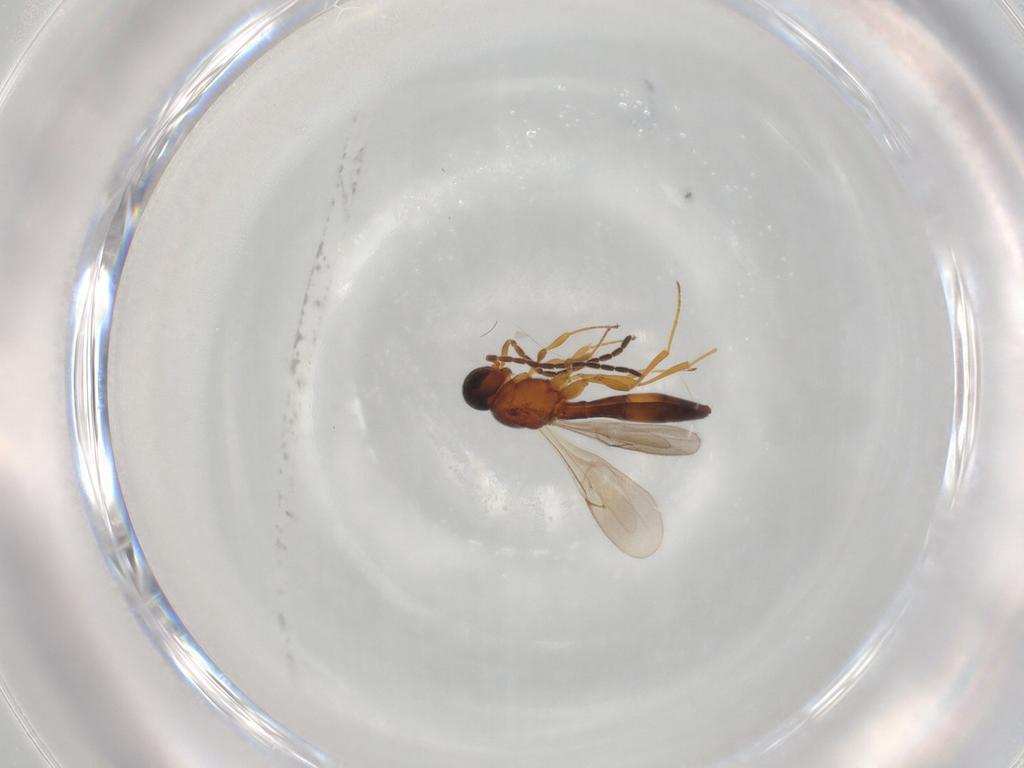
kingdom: Animalia
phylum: Arthropoda
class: Insecta
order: Hymenoptera
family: Scelionidae
